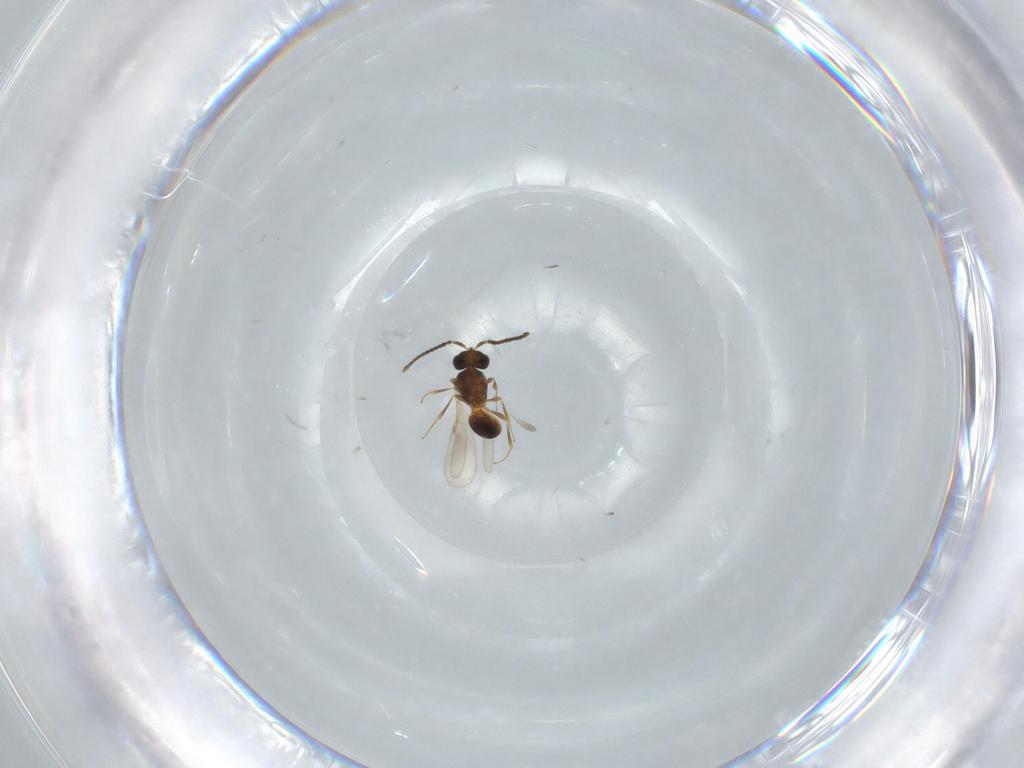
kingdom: Animalia
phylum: Arthropoda
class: Insecta
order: Hymenoptera
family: Scelionidae
